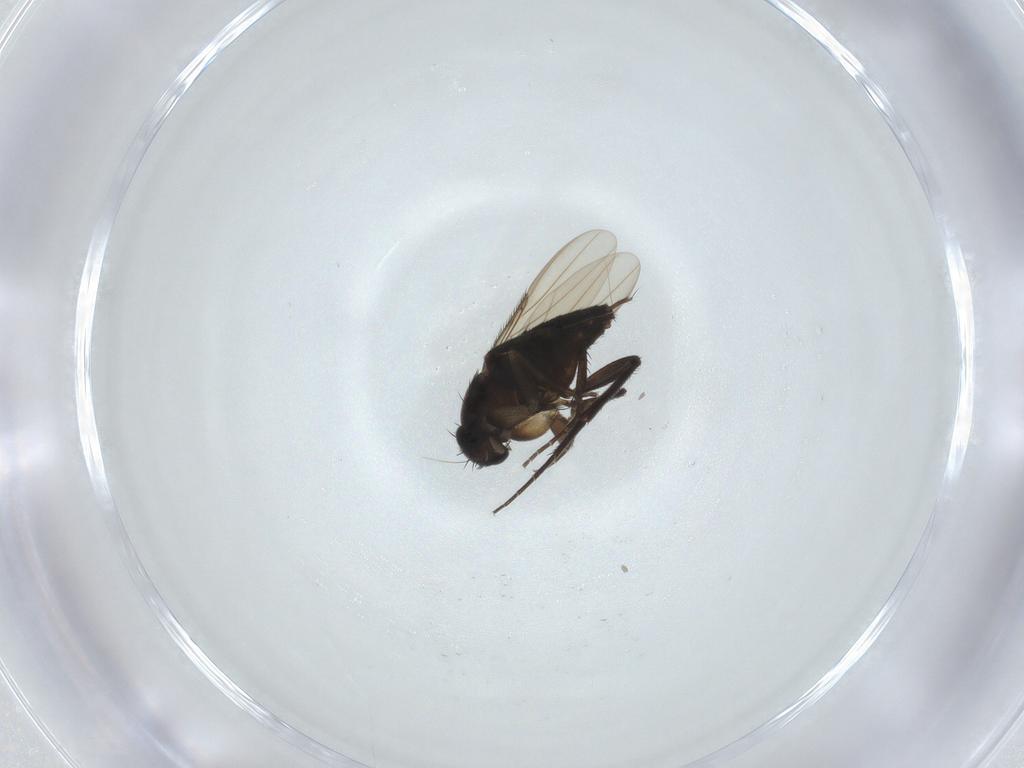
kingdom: Animalia
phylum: Arthropoda
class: Insecta
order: Diptera
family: Phoridae
